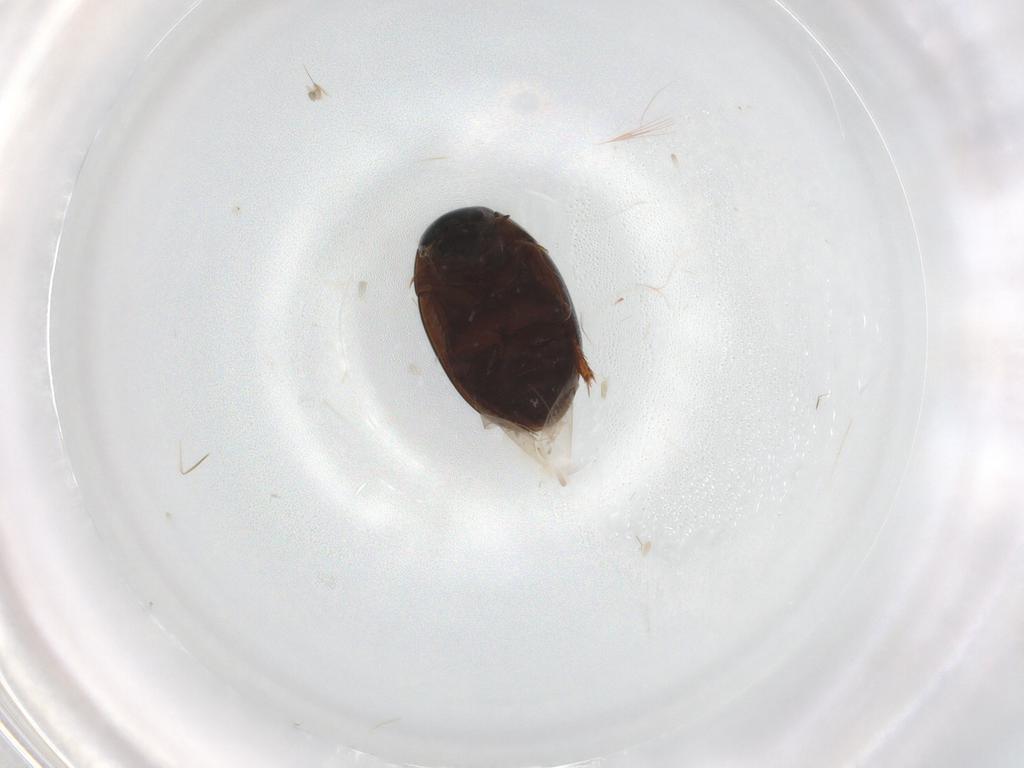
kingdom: Animalia
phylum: Arthropoda
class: Insecta
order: Coleoptera
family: Hydrophilidae
